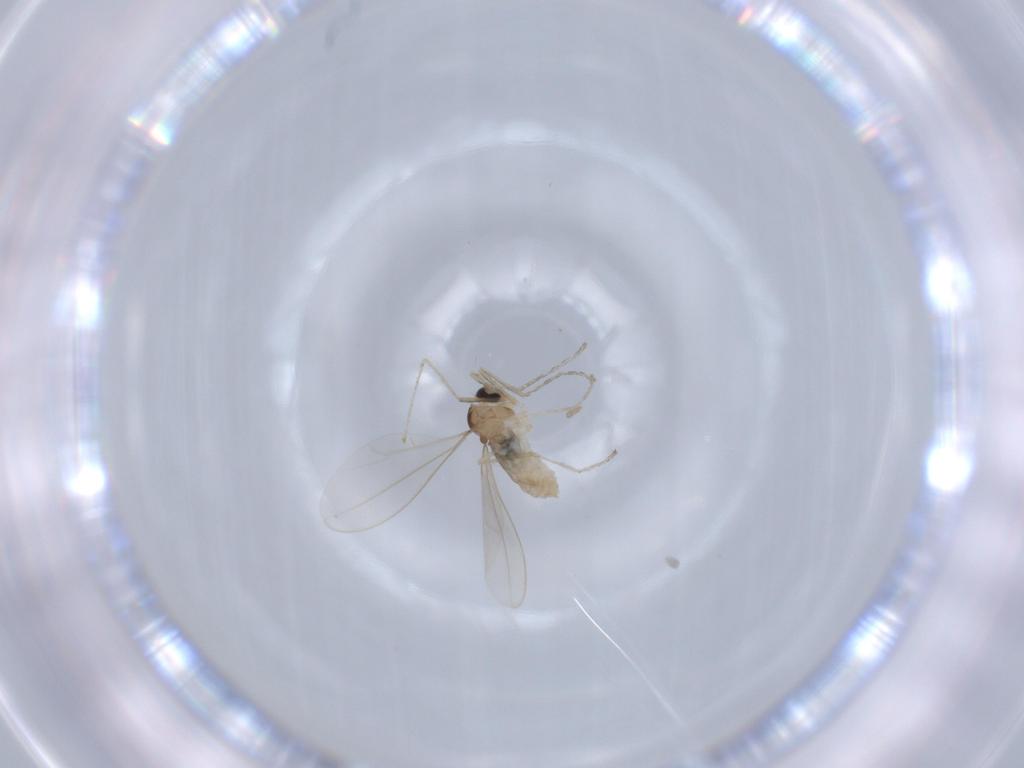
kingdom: Animalia
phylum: Arthropoda
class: Insecta
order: Diptera
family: Cecidomyiidae
